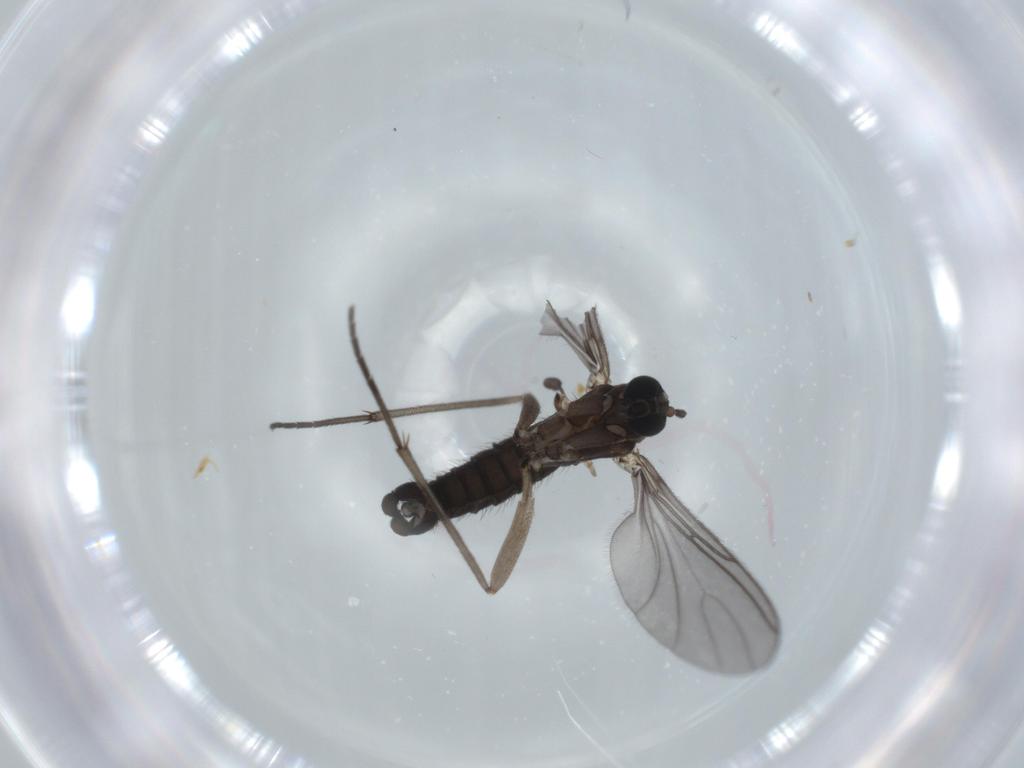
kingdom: Animalia
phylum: Arthropoda
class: Insecta
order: Diptera
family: Sciaridae
